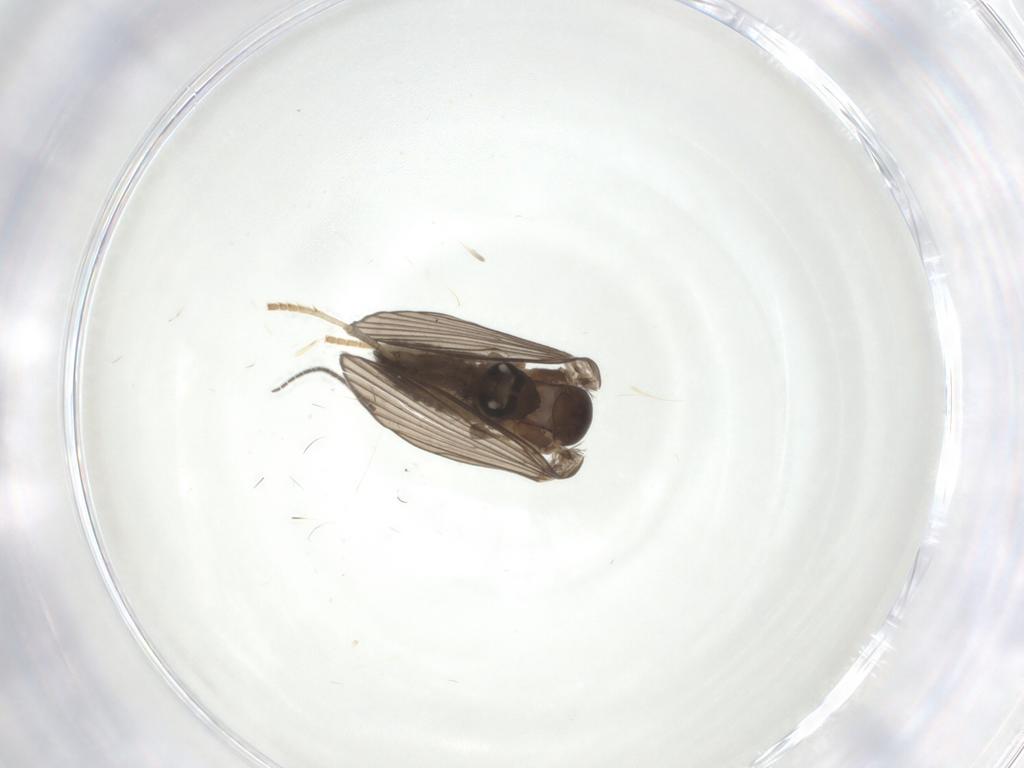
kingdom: Animalia
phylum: Arthropoda
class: Insecta
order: Diptera
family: Psychodidae
